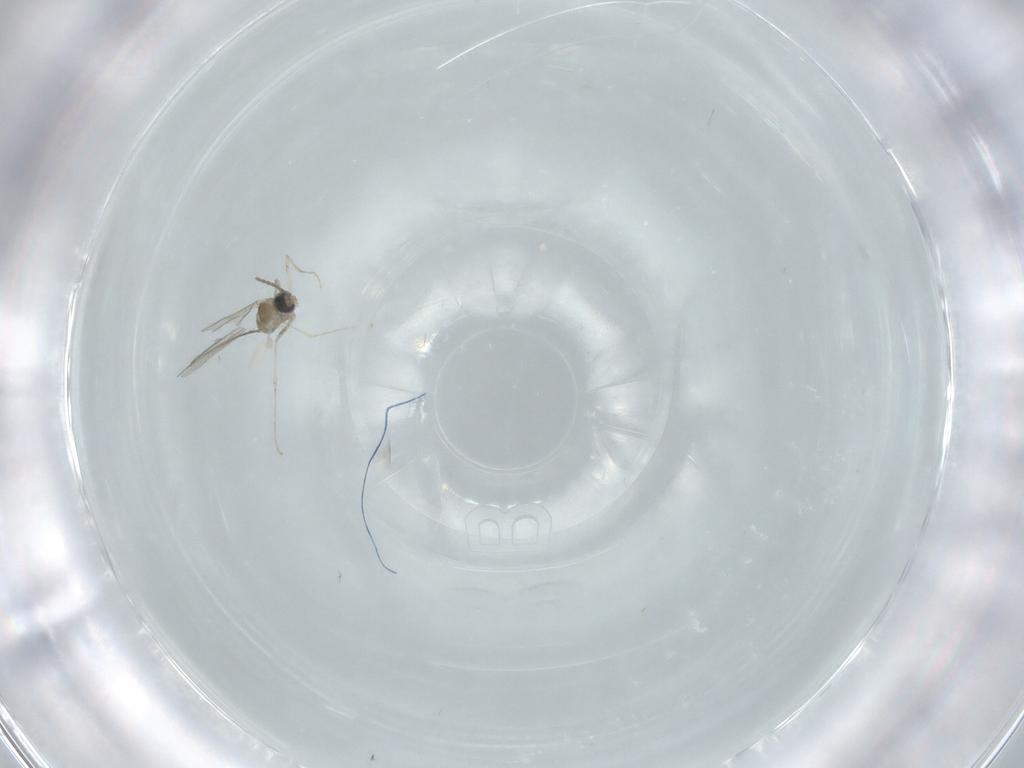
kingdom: Animalia
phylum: Arthropoda
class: Insecta
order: Diptera
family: Cecidomyiidae
